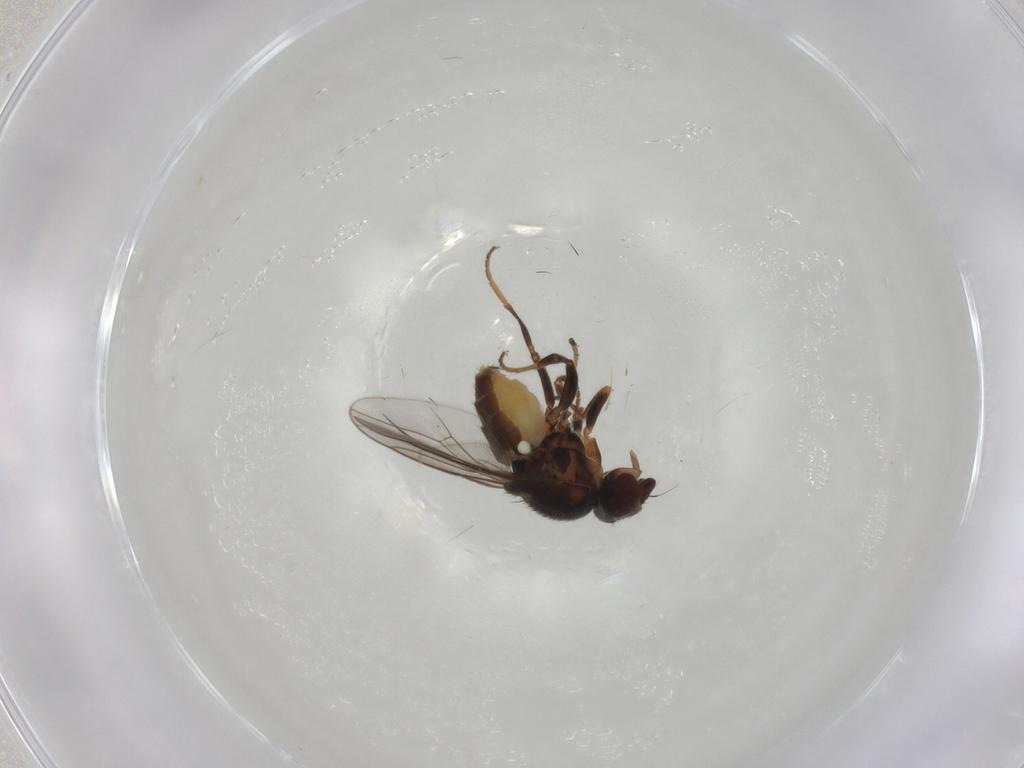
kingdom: Animalia
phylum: Arthropoda
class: Insecta
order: Diptera
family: Chloropidae
